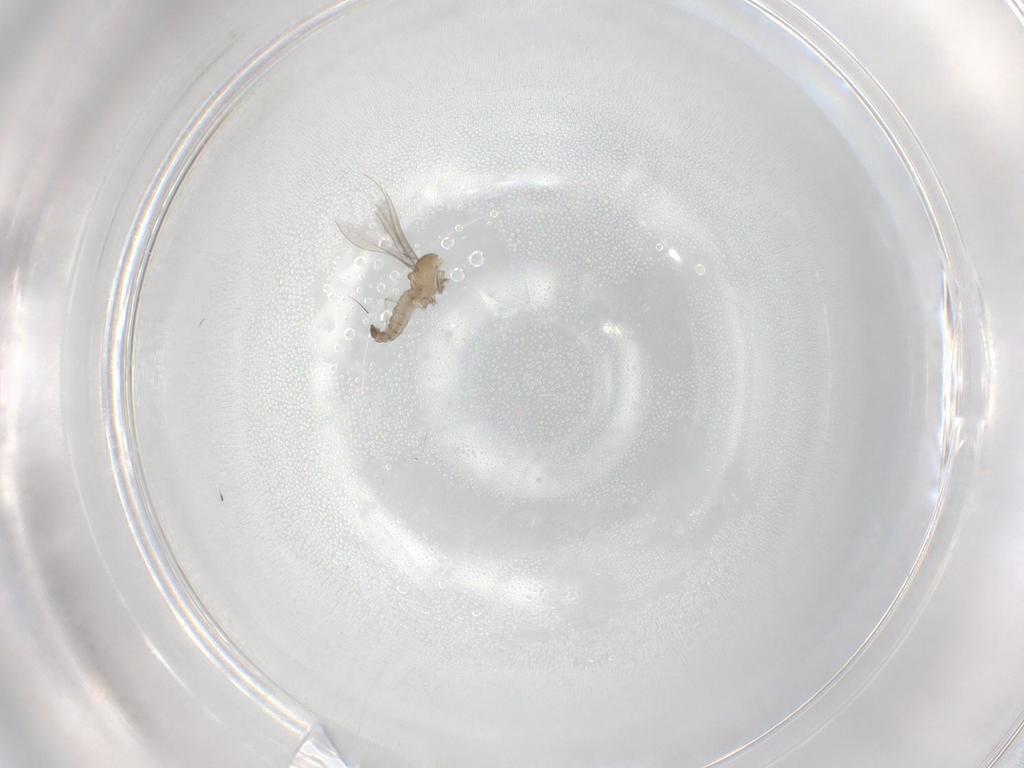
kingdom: Animalia
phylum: Arthropoda
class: Insecta
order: Diptera
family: Cecidomyiidae
